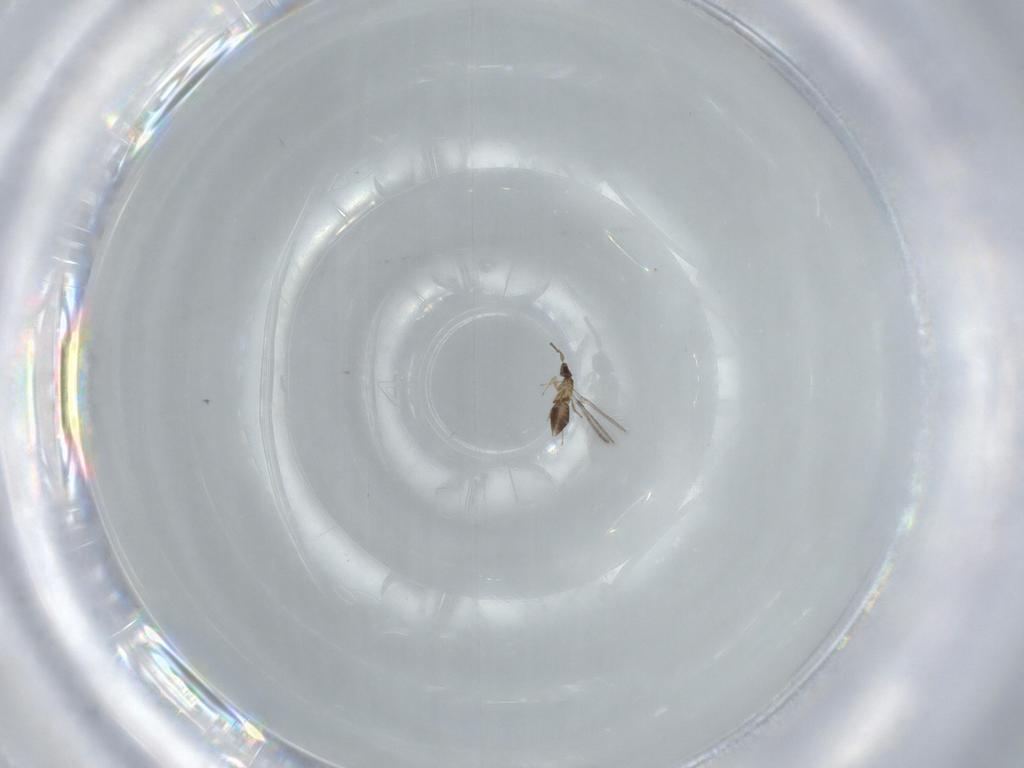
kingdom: Animalia
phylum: Arthropoda
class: Insecta
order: Hymenoptera
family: Mymaridae
